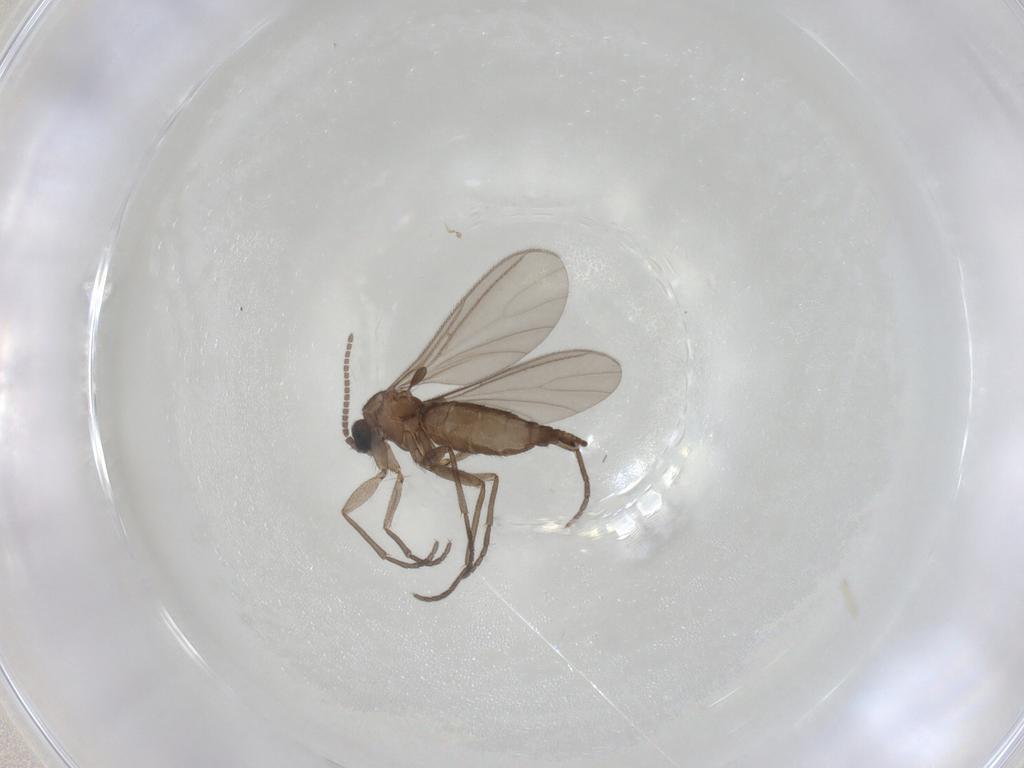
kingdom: Animalia
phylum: Arthropoda
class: Insecta
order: Diptera
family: Sciaridae
